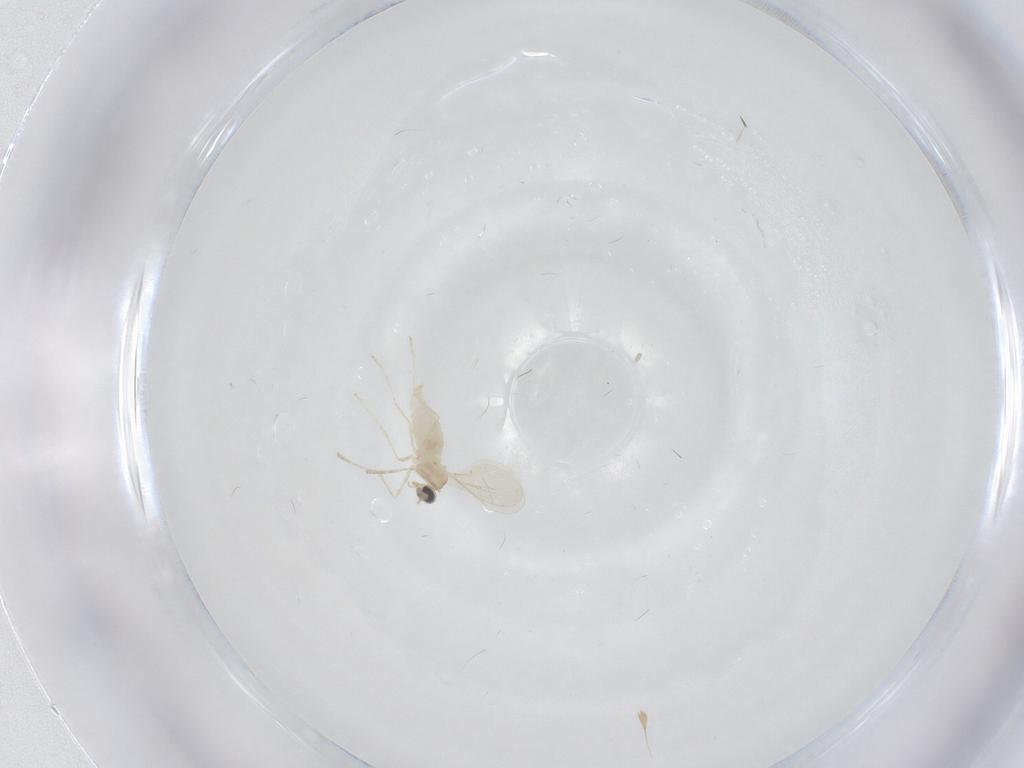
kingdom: Animalia
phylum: Arthropoda
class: Insecta
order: Diptera
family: Cecidomyiidae
